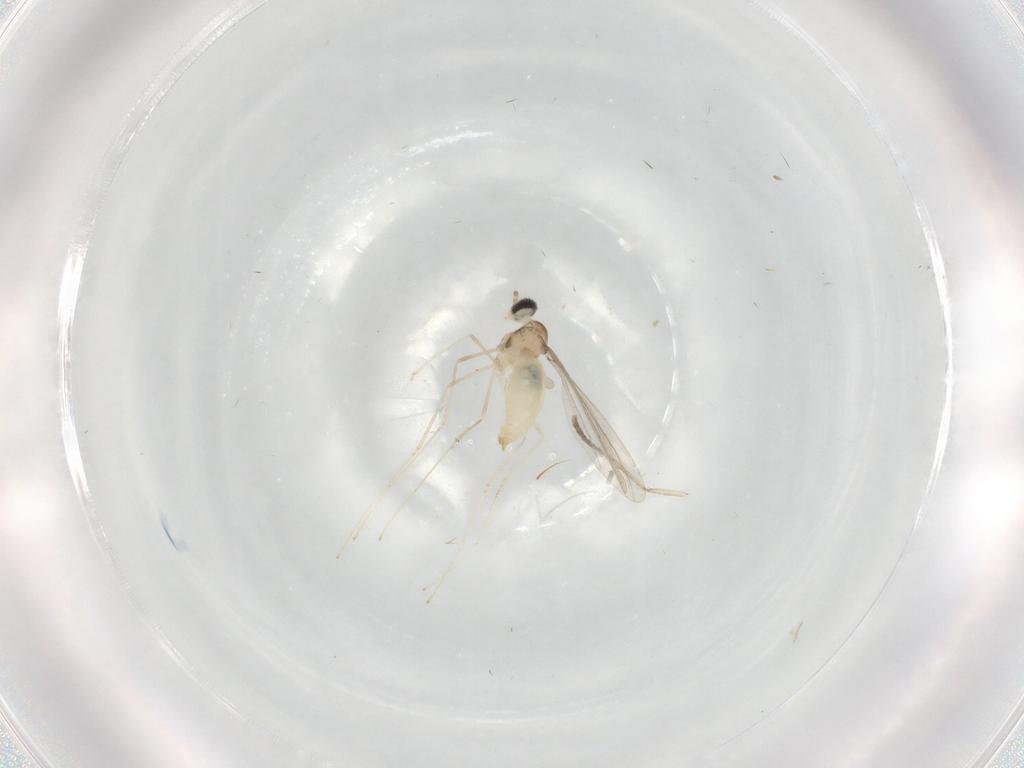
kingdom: Animalia
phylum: Arthropoda
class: Insecta
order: Diptera
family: Cecidomyiidae
